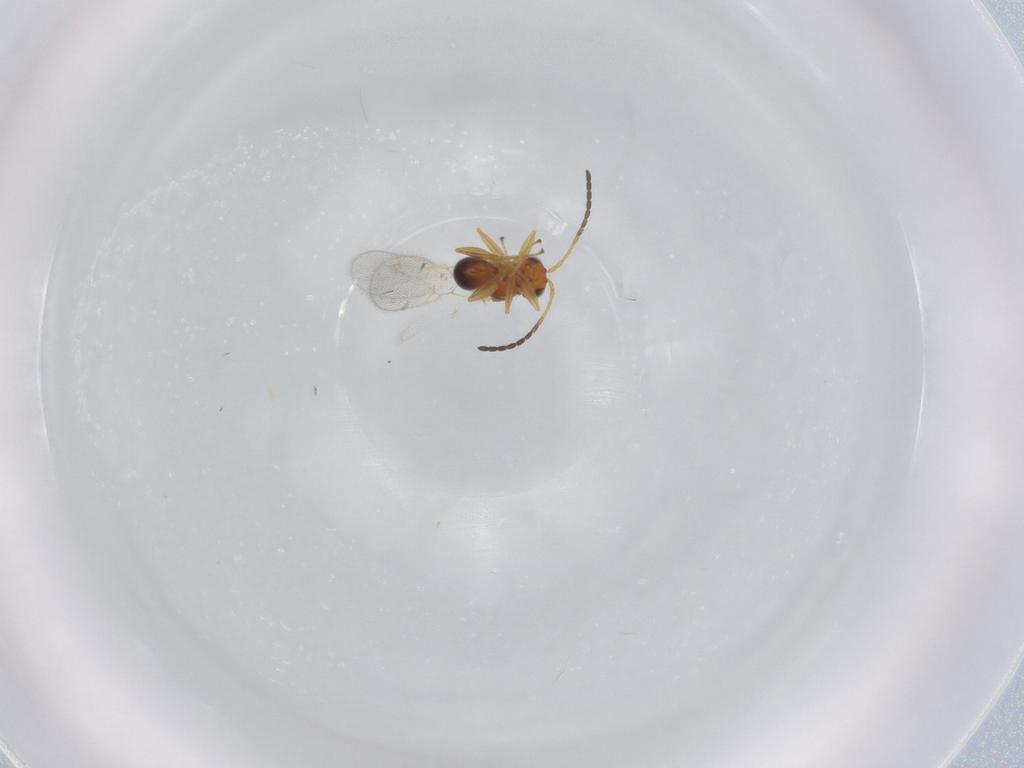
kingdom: Animalia
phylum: Arthropoda
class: Insecta
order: Hymenoptera
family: Figitidae
